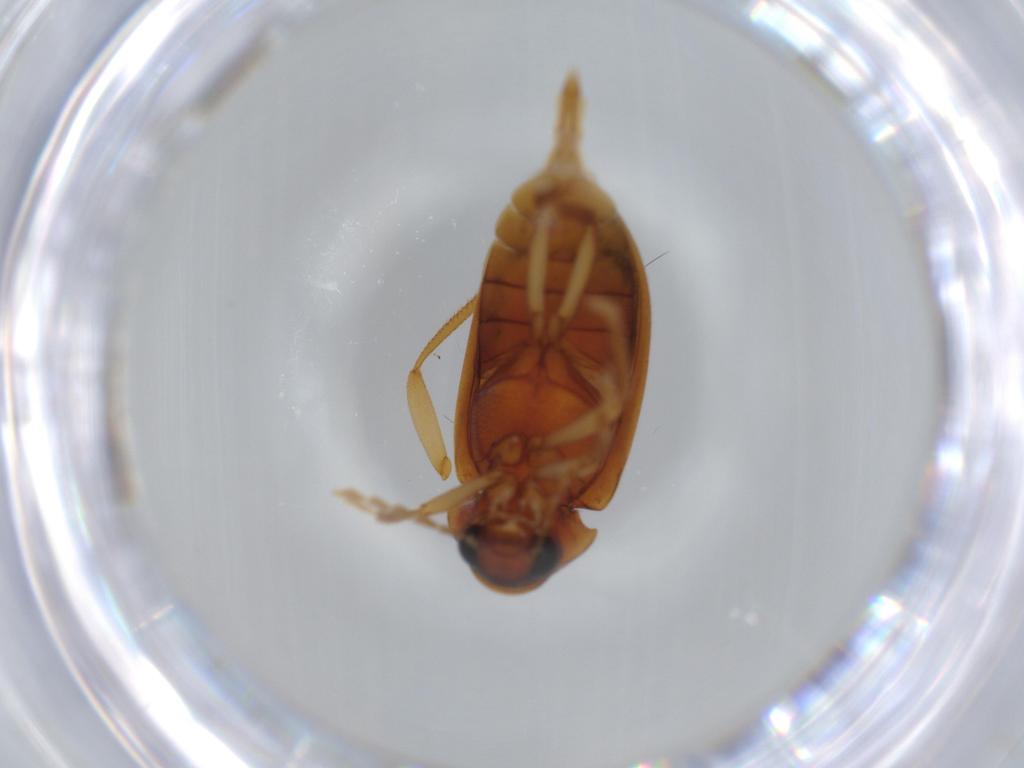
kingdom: Animalia
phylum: Arthropoda
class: Insecta
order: Coleoptera
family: Ptilodactylidae
